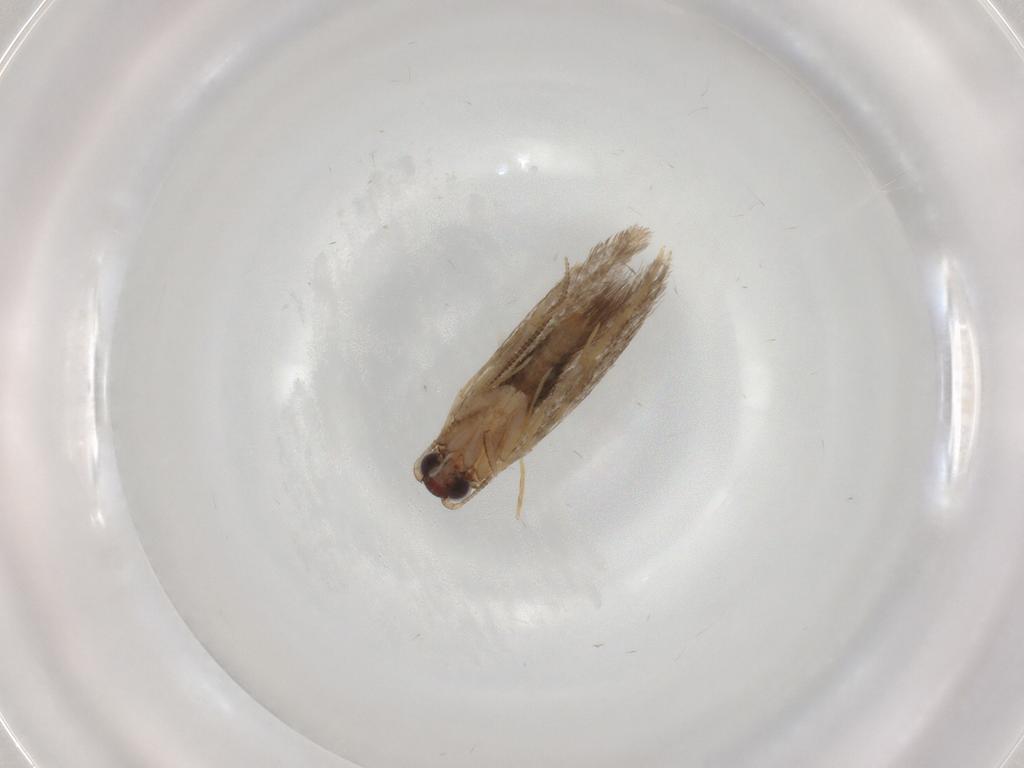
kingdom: Animalia
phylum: Arthropoda
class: Insecta
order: Lepidoptera
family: Tineidae
